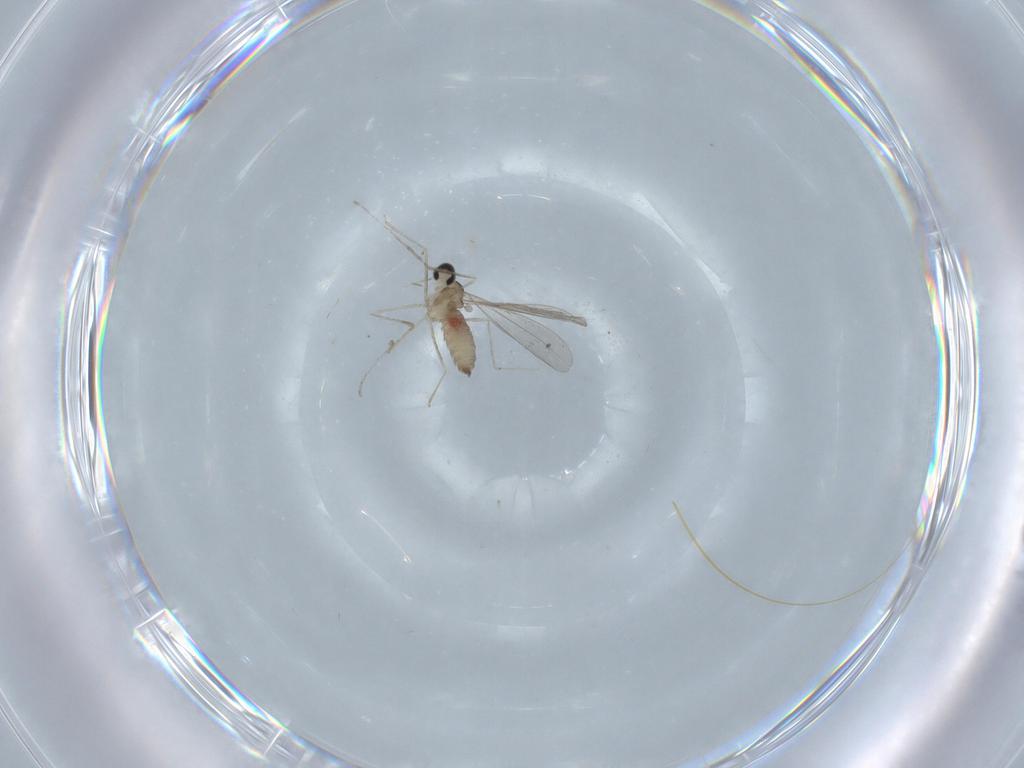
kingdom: Animalia
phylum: Arthropoda
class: Insecta
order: Diptera
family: Cecidomyiidae
